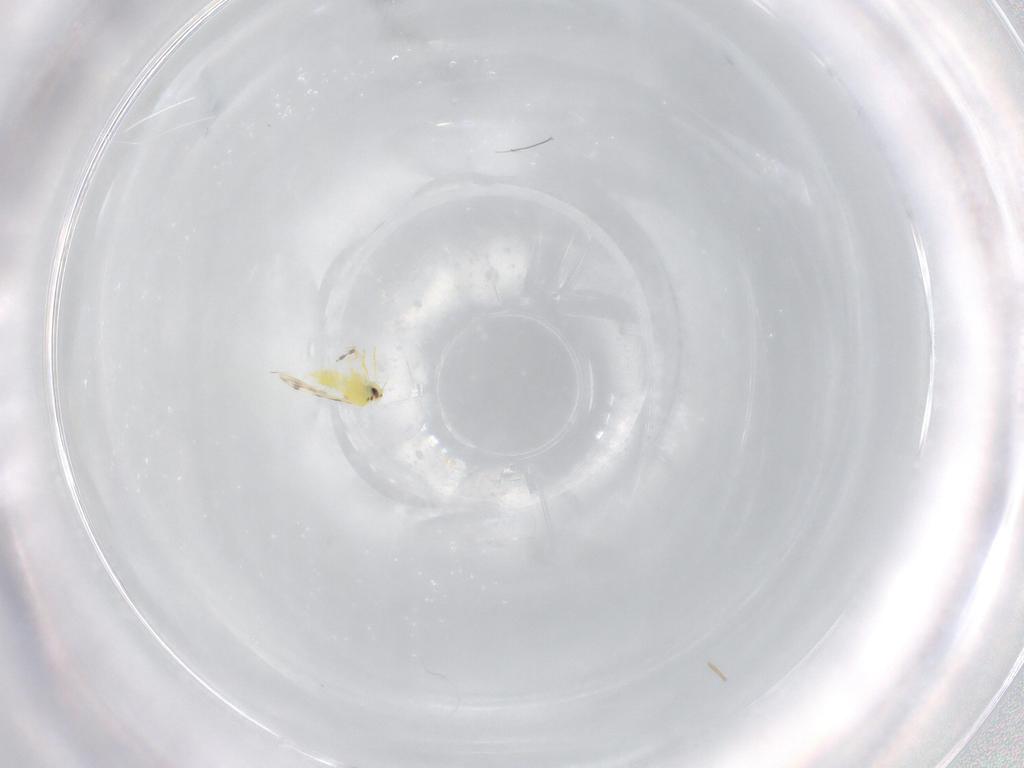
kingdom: Animalia
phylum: Arthropoda
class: Insecta
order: Hemiptera
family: Aleyrodidae
